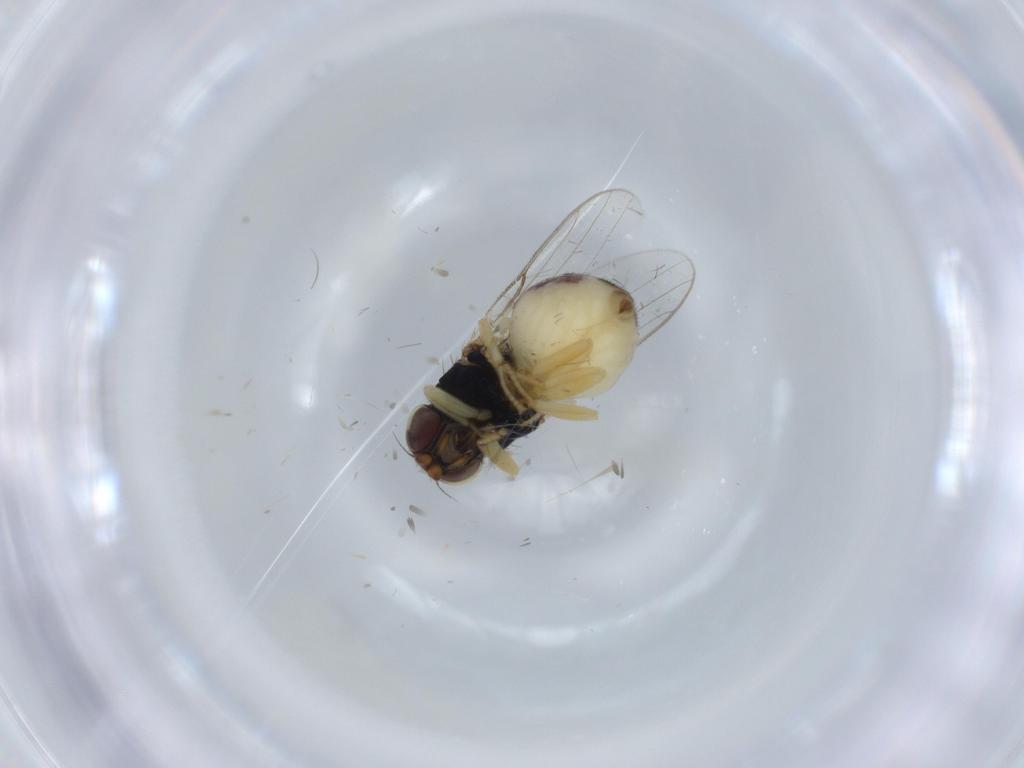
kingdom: Animalia
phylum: Arthropoda
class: Insecta
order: Diptera
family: Chloropidae
